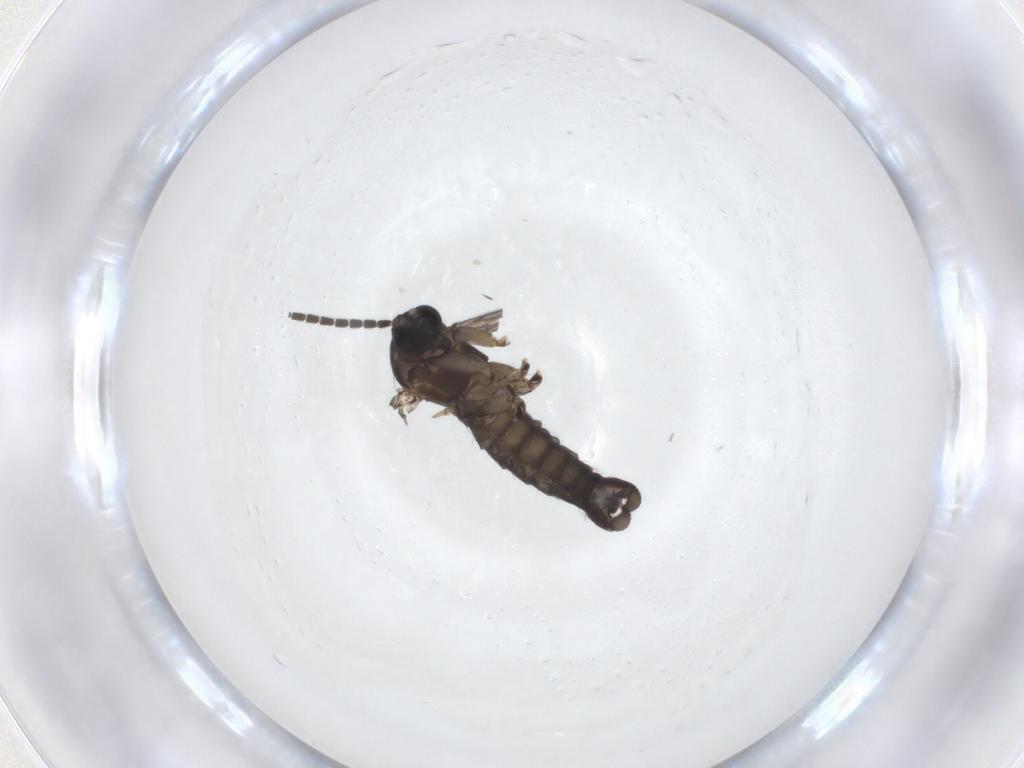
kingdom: Animalia
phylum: Arthropoda
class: Insecta
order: Diptera
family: Sciaridae
